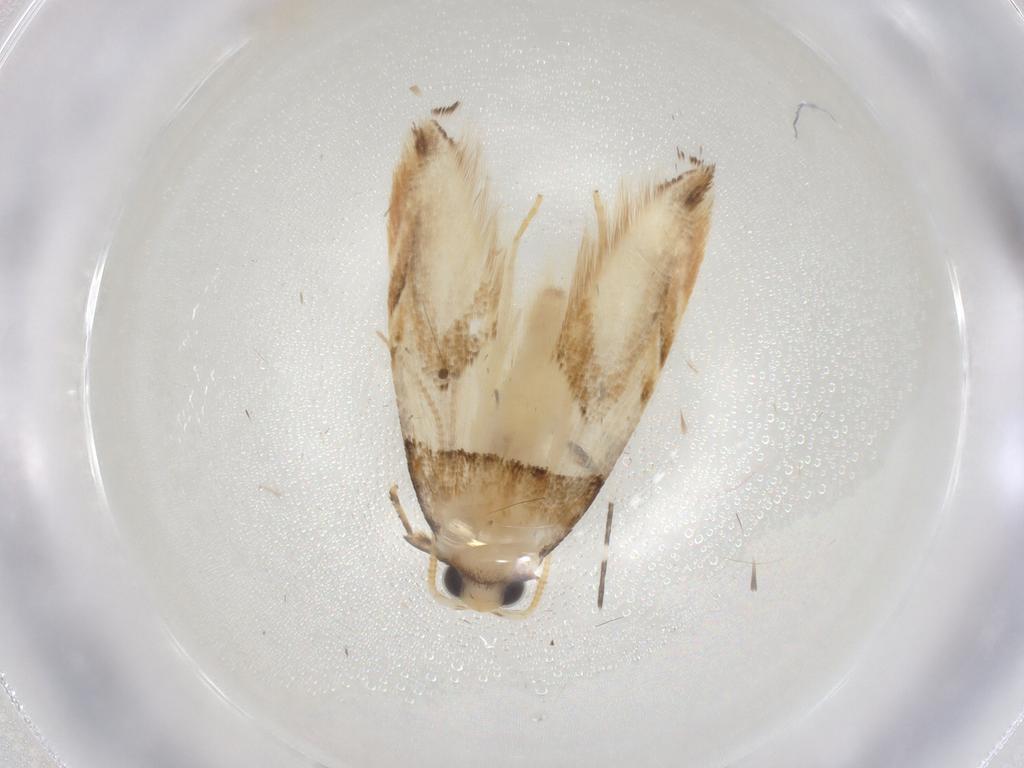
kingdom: Animalia
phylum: Arthropoda
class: Insecta
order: Lepidoptera
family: Tineidae
